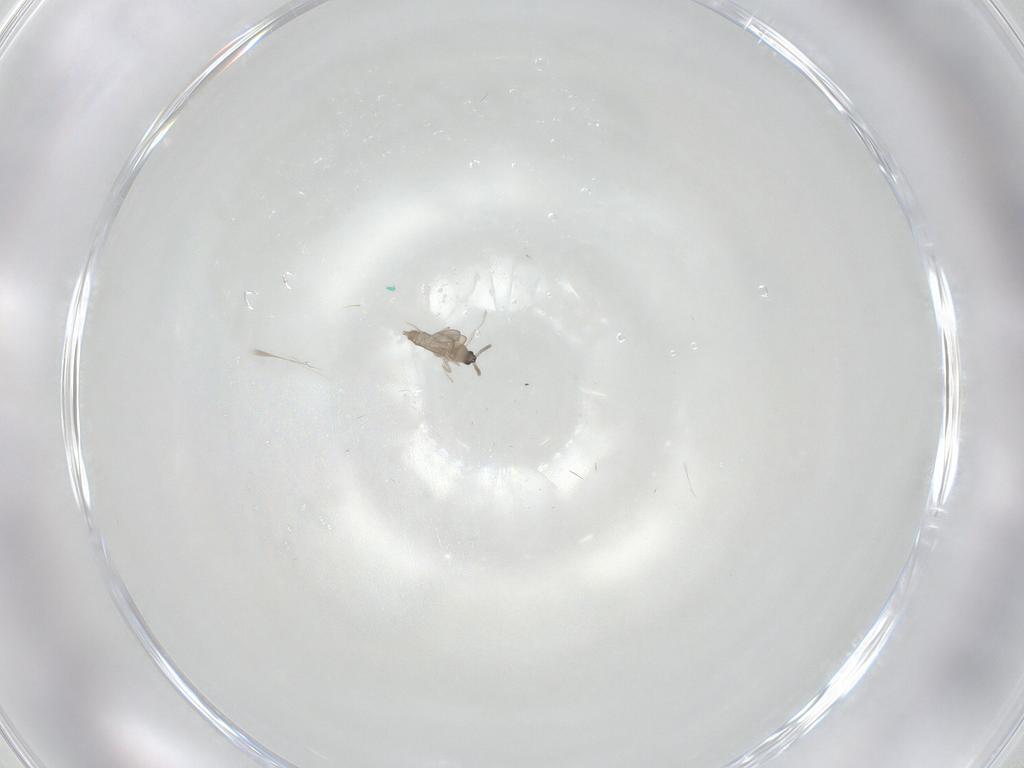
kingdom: Animalia
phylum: Arthropoda
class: Insecta
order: Diptera
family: Cecidomyiidae
